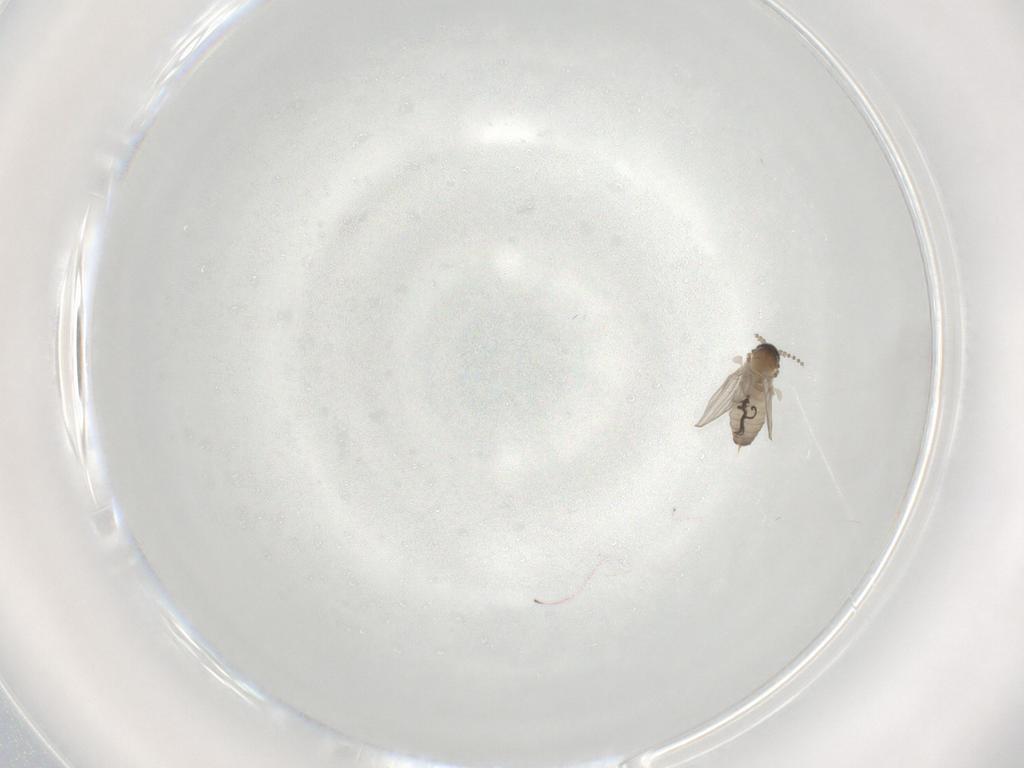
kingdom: Animalia
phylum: Arthropoda
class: Insecta
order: Diptera
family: Psychodidae
